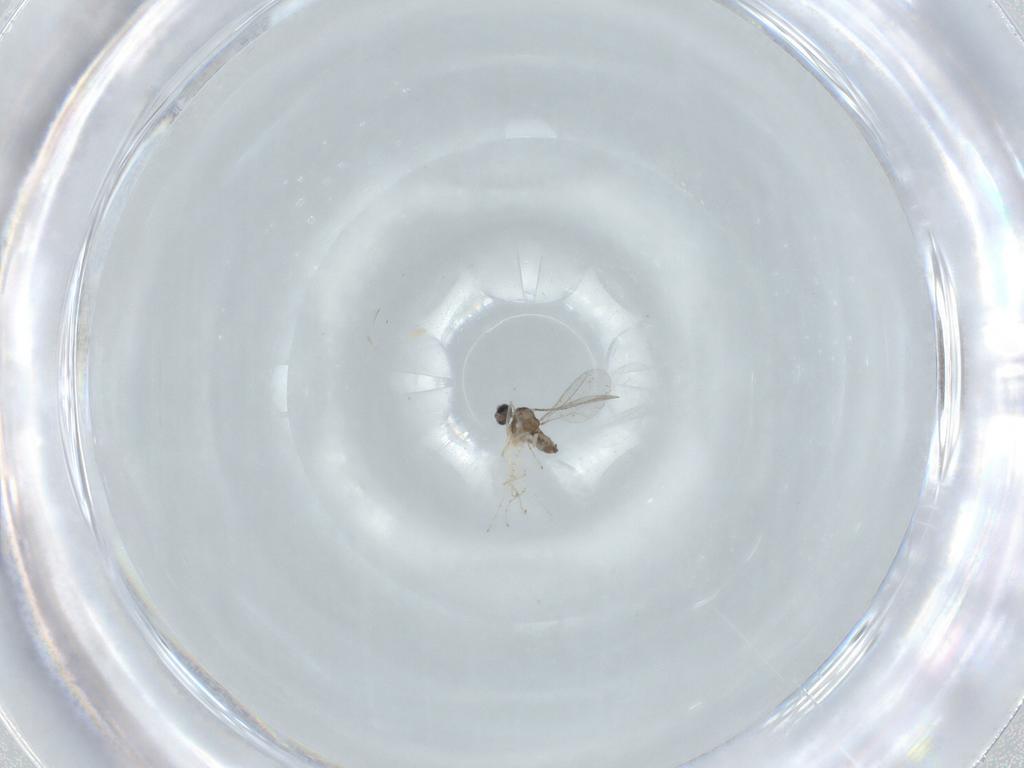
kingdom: Animalia
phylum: Arthropoda
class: Insecta
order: Diptera
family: Cecidomyiidae
